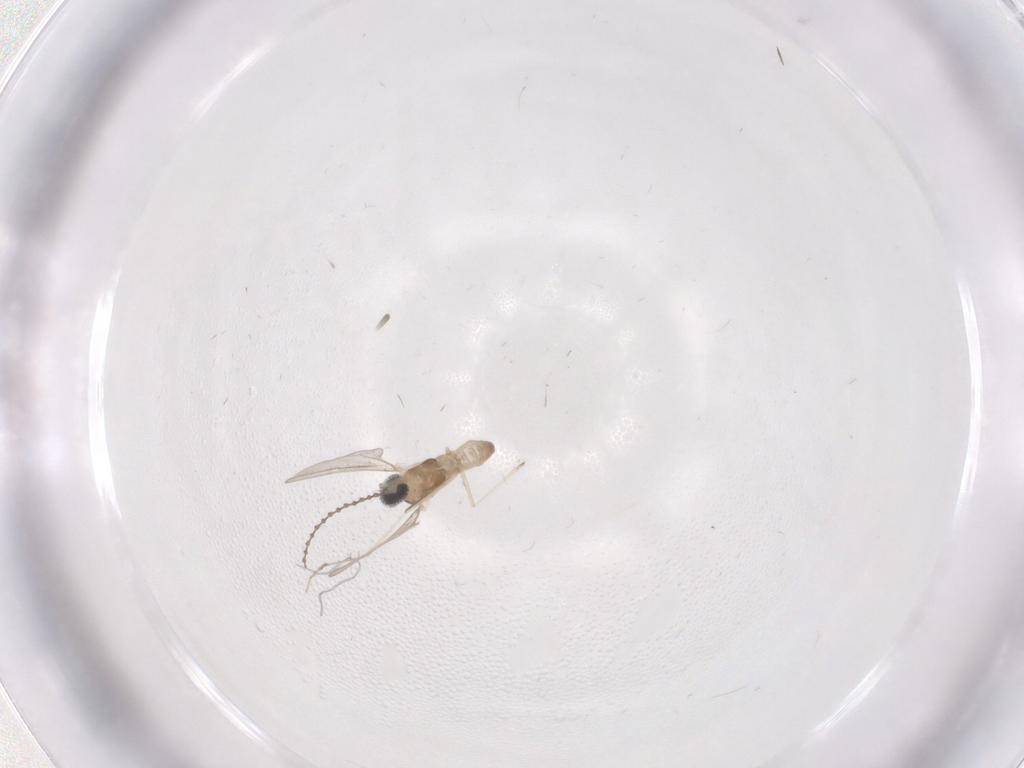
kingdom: Animalia
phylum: Arthropoda
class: Insecta
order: Diptera
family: Cecidomyiidae
